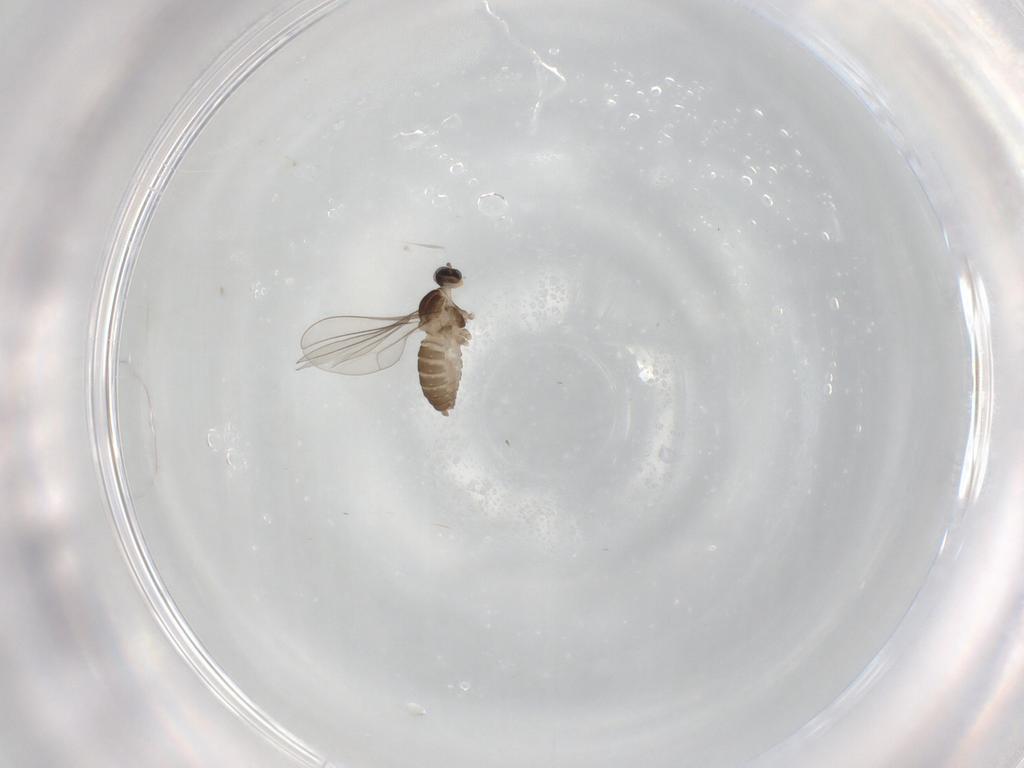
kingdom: Animalia
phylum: Arthropoda
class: Insecta
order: Diptera
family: Cecidomyiidae
